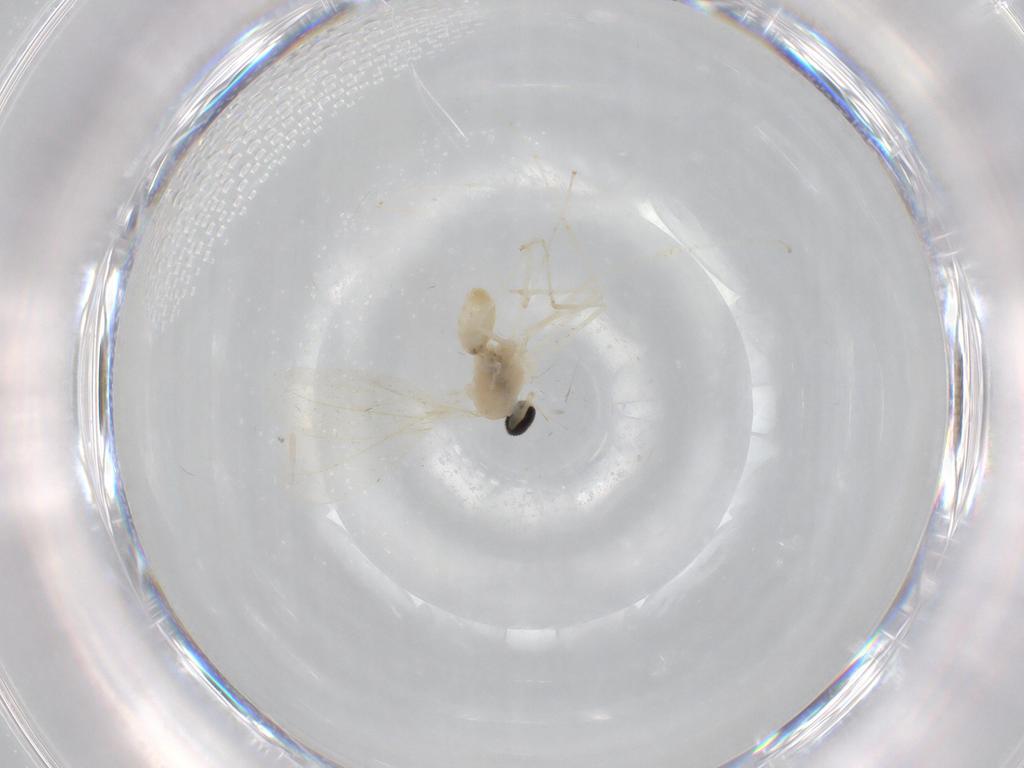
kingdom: Animalia
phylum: Arthropoda
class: Insecta
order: Diptera
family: Cecidomyiidae
